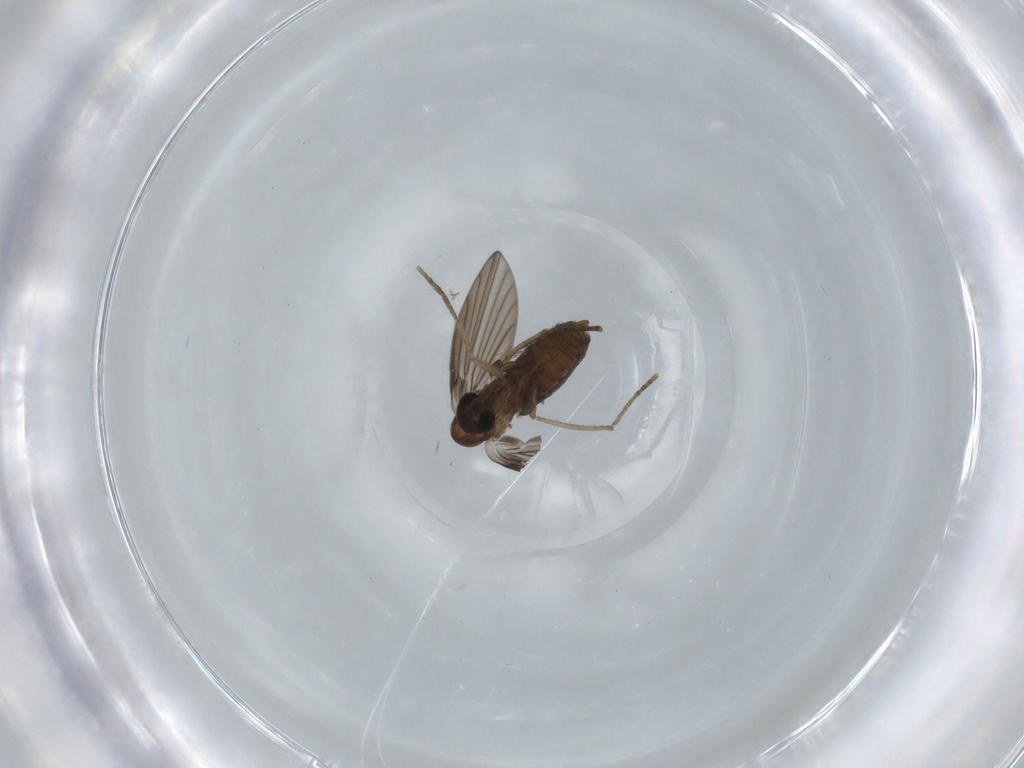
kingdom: Animalia
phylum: Arthropoda
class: Insecta
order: Diptera
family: Psychodidae
